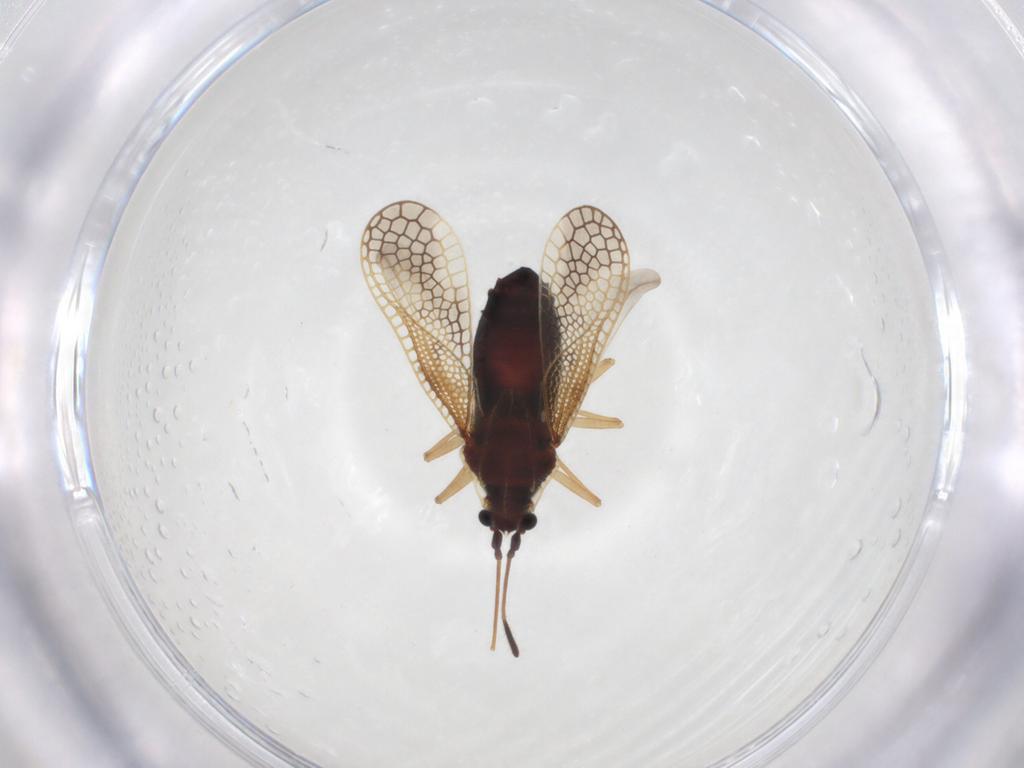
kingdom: Animalia
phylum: Arthropoda
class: Insecta
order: Hemiptera
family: Tingidae
